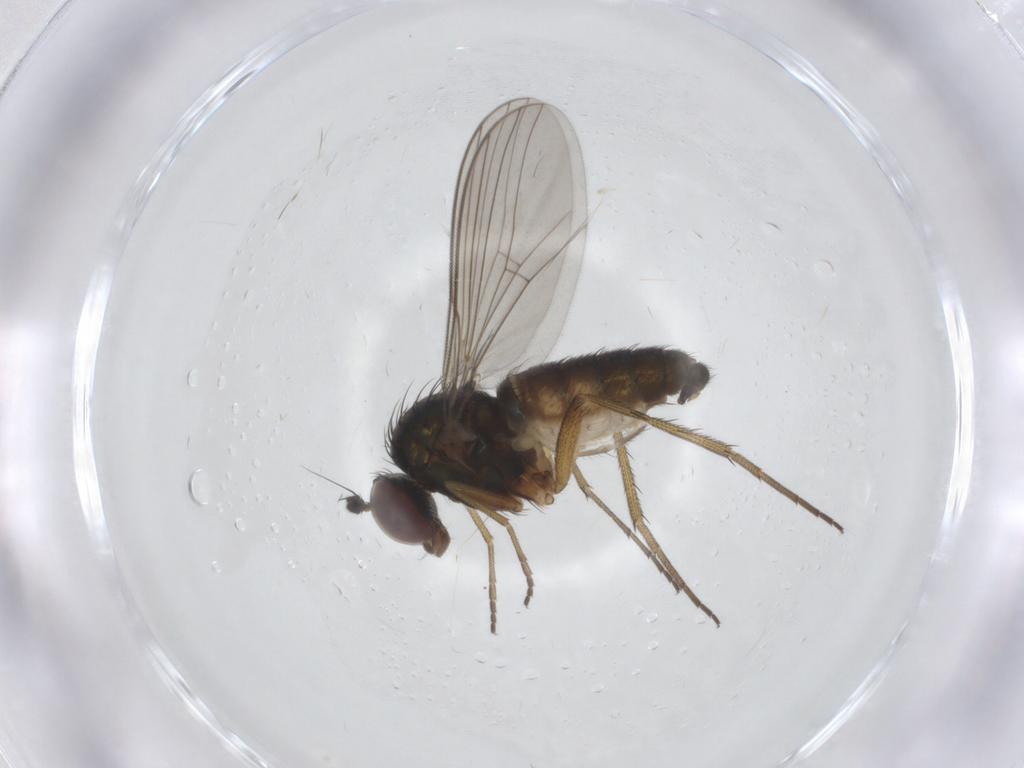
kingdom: Animalia
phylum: Arthropoda
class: Insecta
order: Diptera
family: Dolichopodidae
